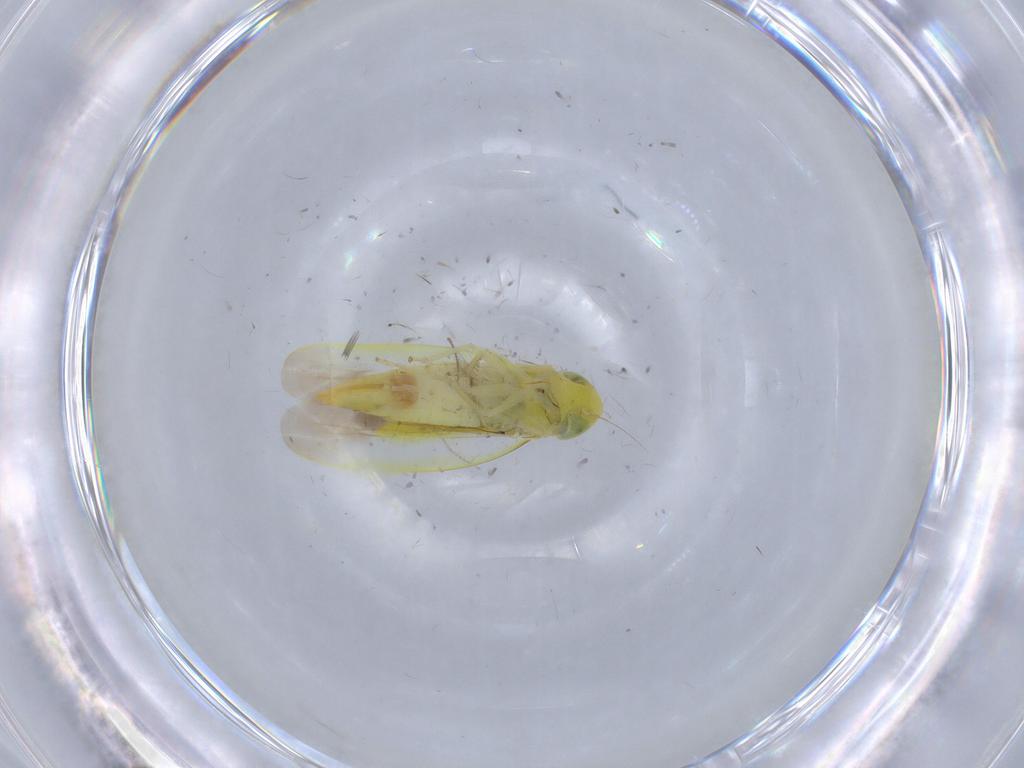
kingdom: Animalia
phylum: Arthropoda
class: Insecta
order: Hemiptera
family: Cicadellidae
